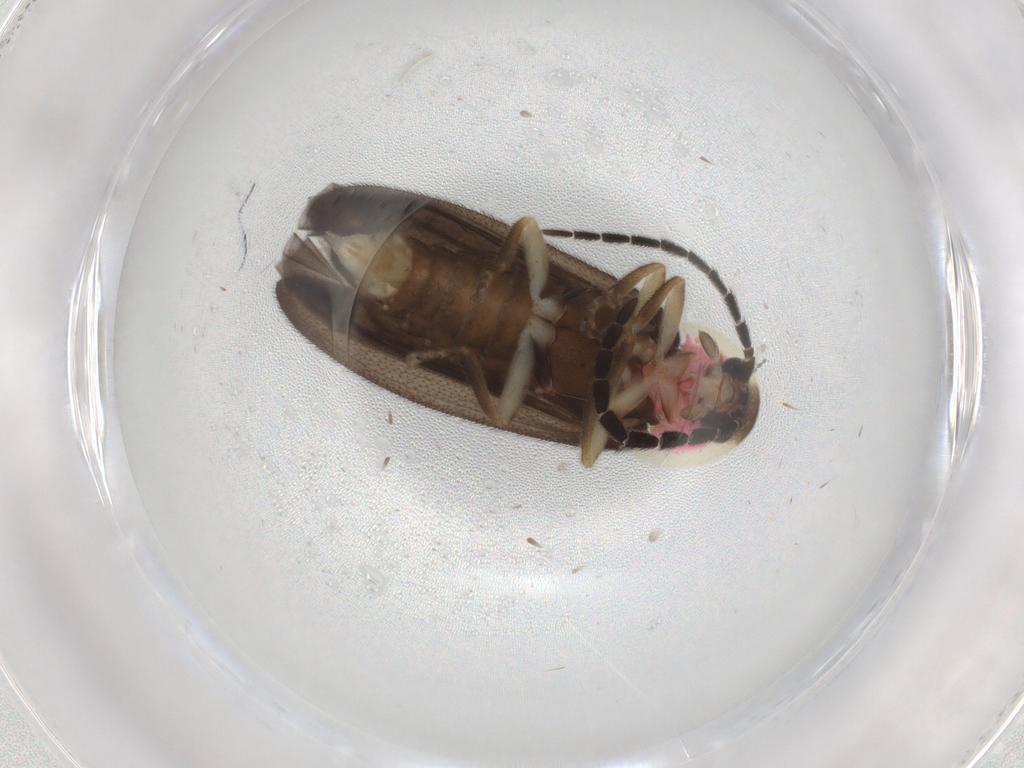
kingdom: Animalia
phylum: Arthropoda
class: Insecta
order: Coleoptera
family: Lampyridae
